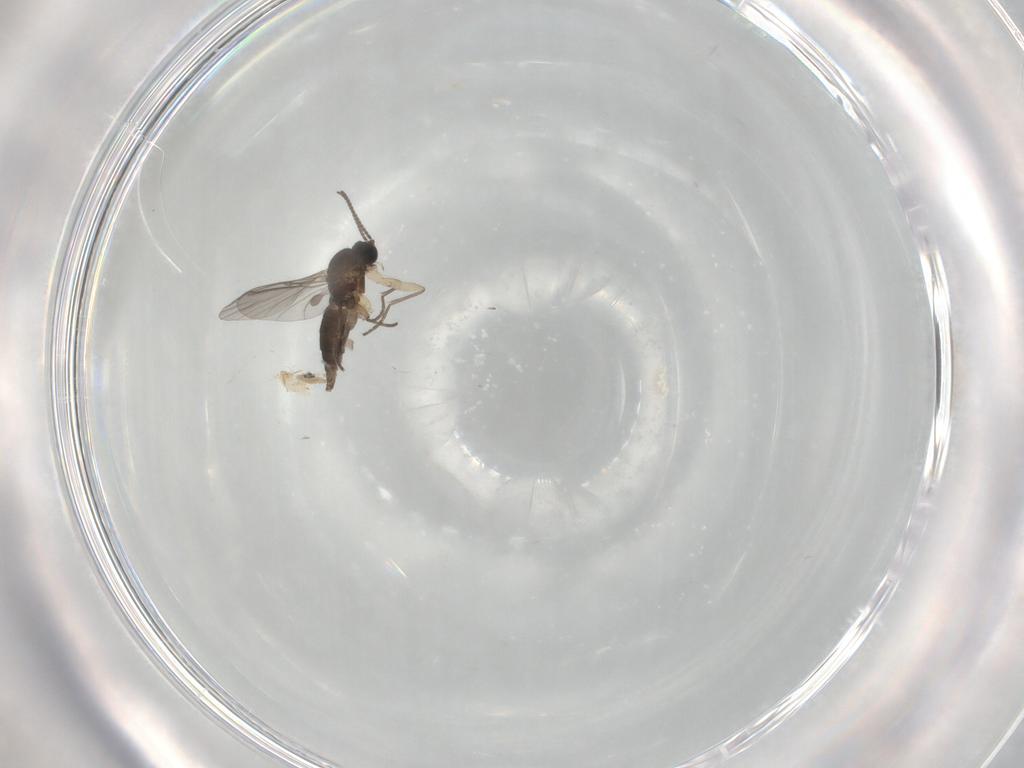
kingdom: Animalia
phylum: Arthropoda
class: Insecta
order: Diptera
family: Cecidomyiidae
